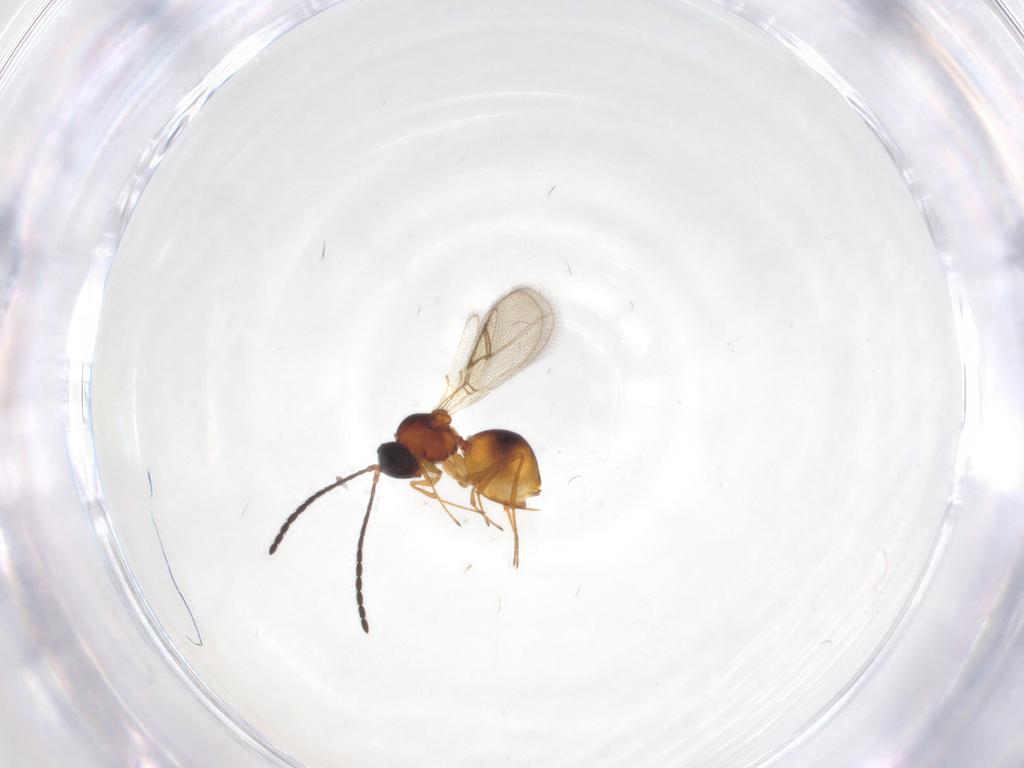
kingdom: Animalia
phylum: Arthropoda
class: Insecta
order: Hymenoptera
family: Figitidae
